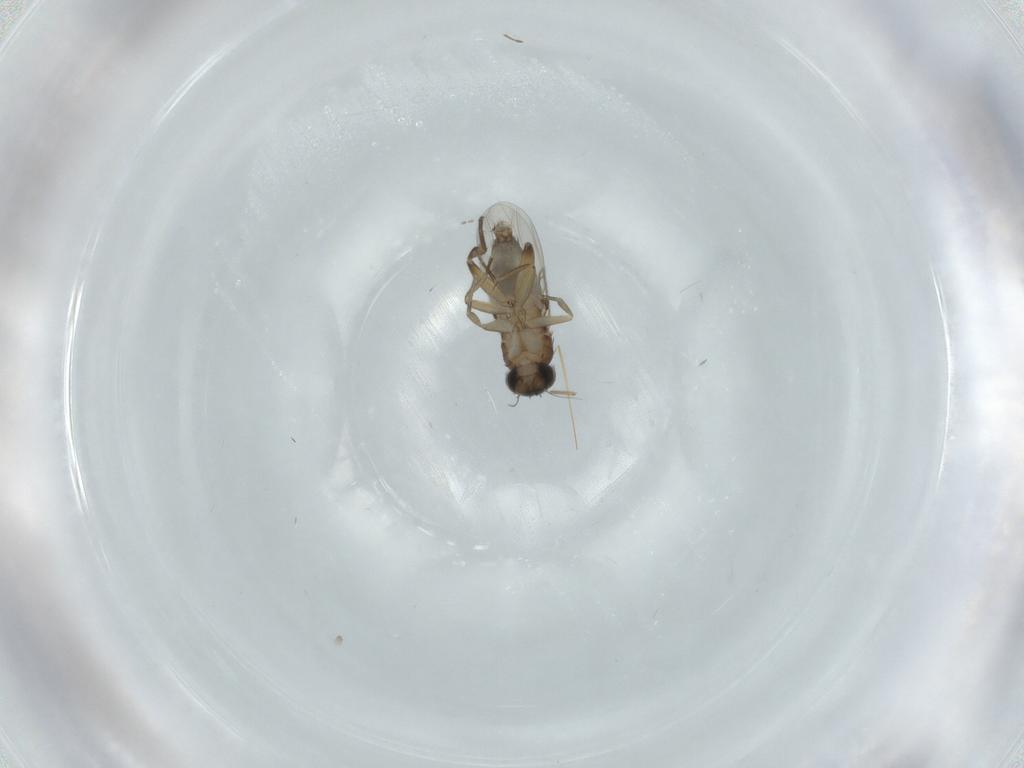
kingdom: Animalia
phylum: Arthropoda
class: Insecta
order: Diptera
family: Phoridae
